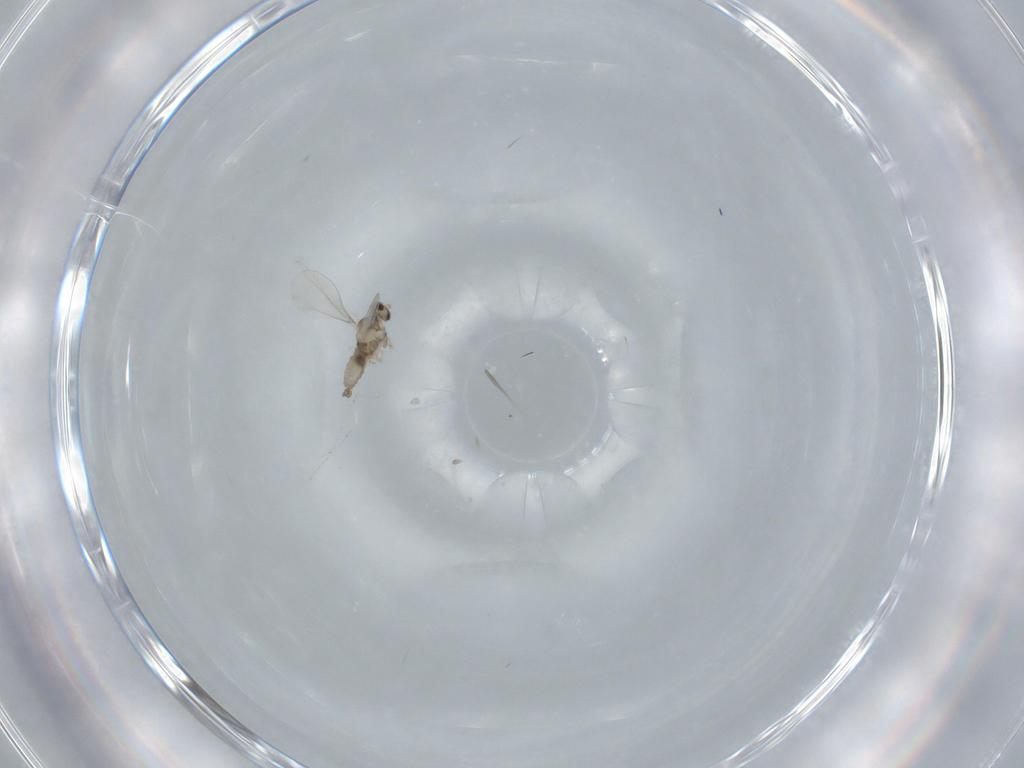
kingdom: Animalia
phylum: Arthropoda
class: Insecta
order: Diptera
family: Cecidomyiidae
